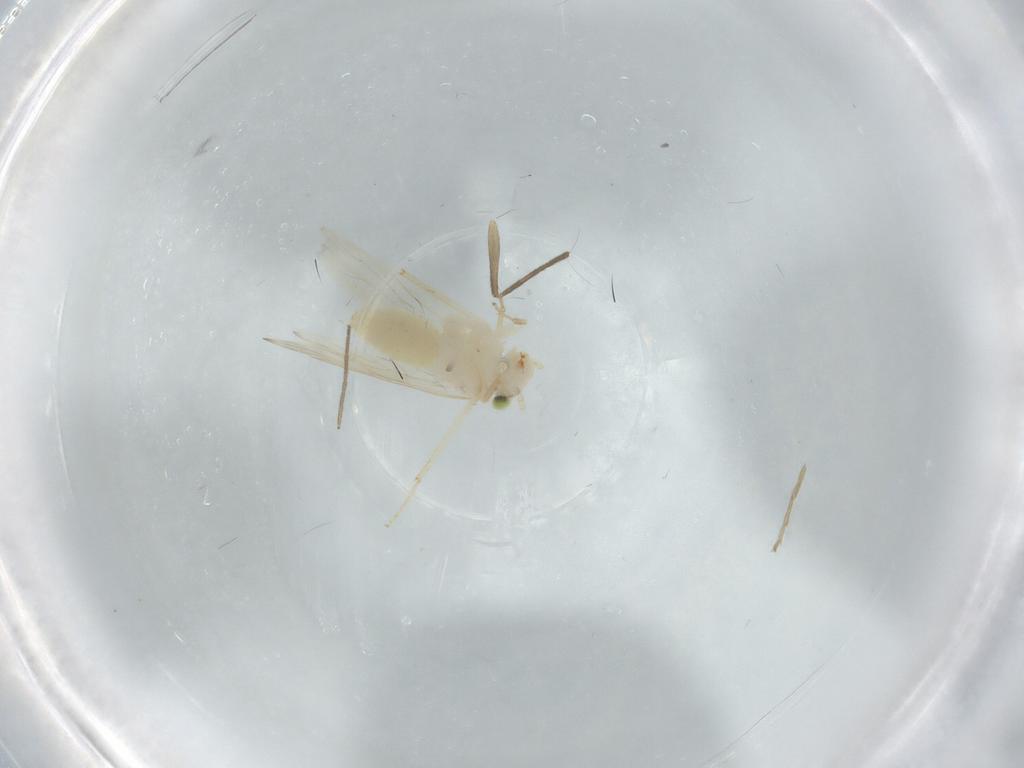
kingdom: Animalia
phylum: Arthropoda
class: Insecta
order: Psocodea
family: Lepidopsocidae
